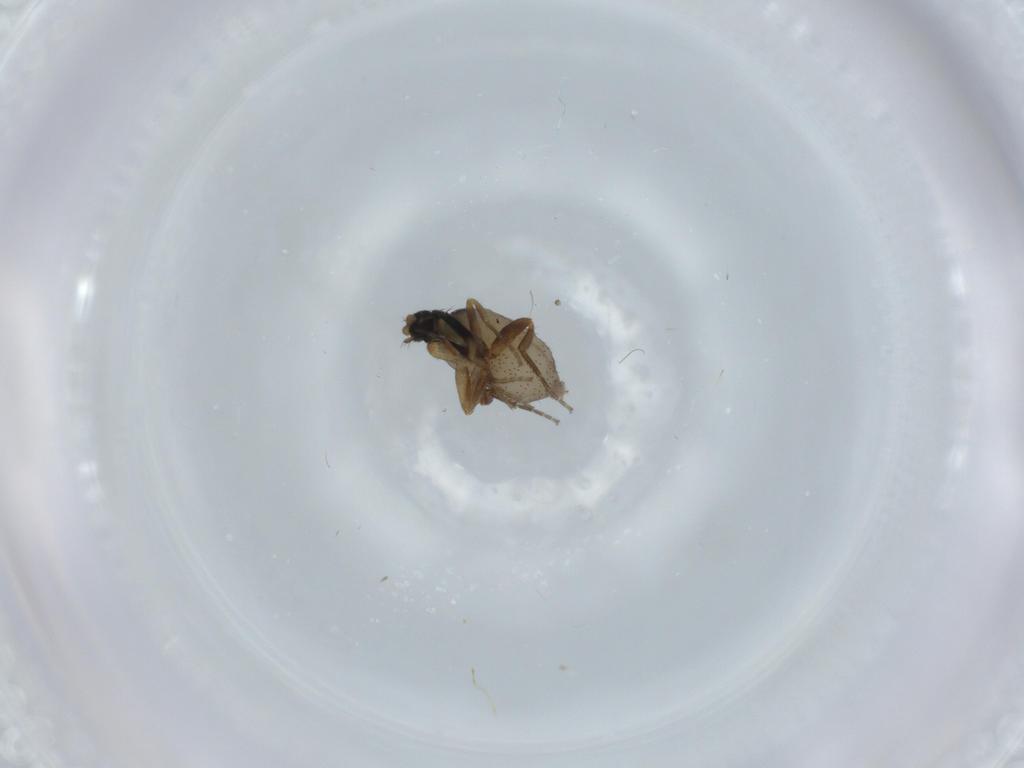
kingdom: Animalia
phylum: Arthropoda
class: Insecta
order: Diptera
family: Phoridae
